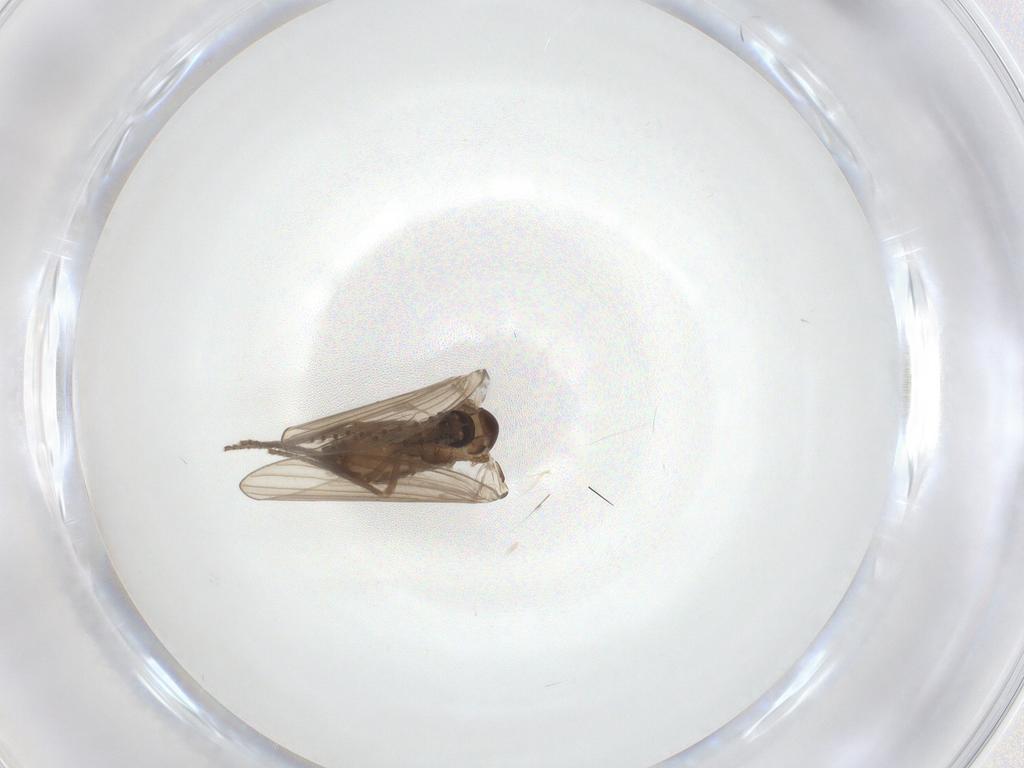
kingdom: Animalia
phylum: Arthropoda
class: Insecta
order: Diptera
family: Psychodidae
